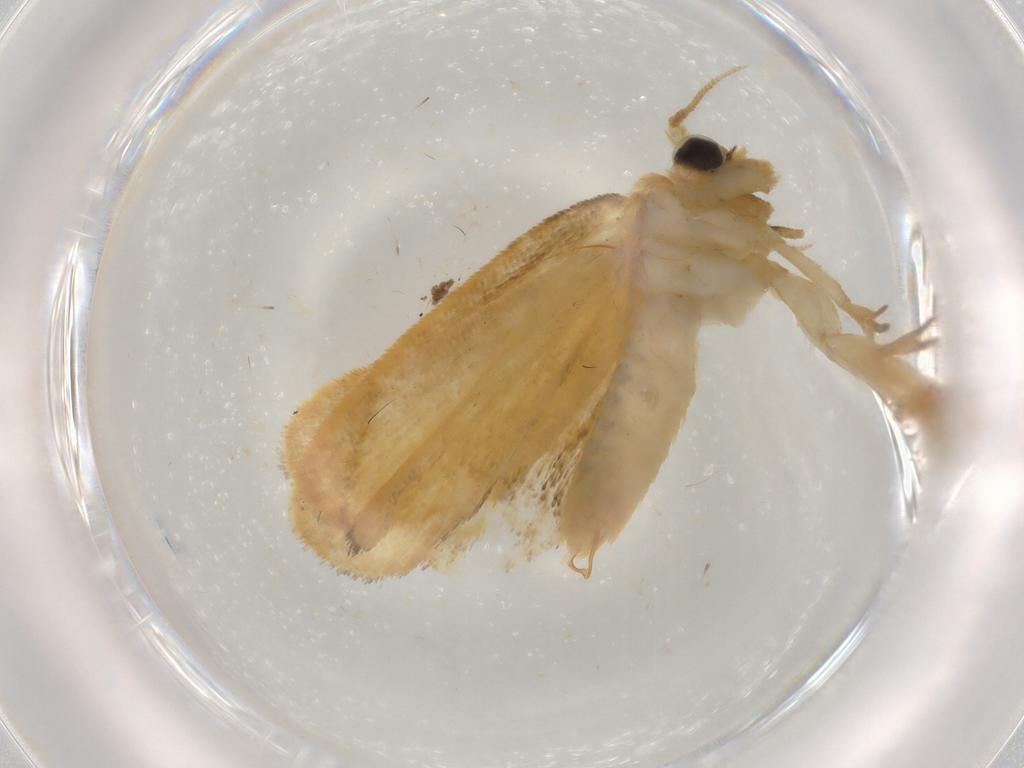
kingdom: Animalia
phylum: Arthropoda
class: Insecta
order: Lepidoptera
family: Psychidae
